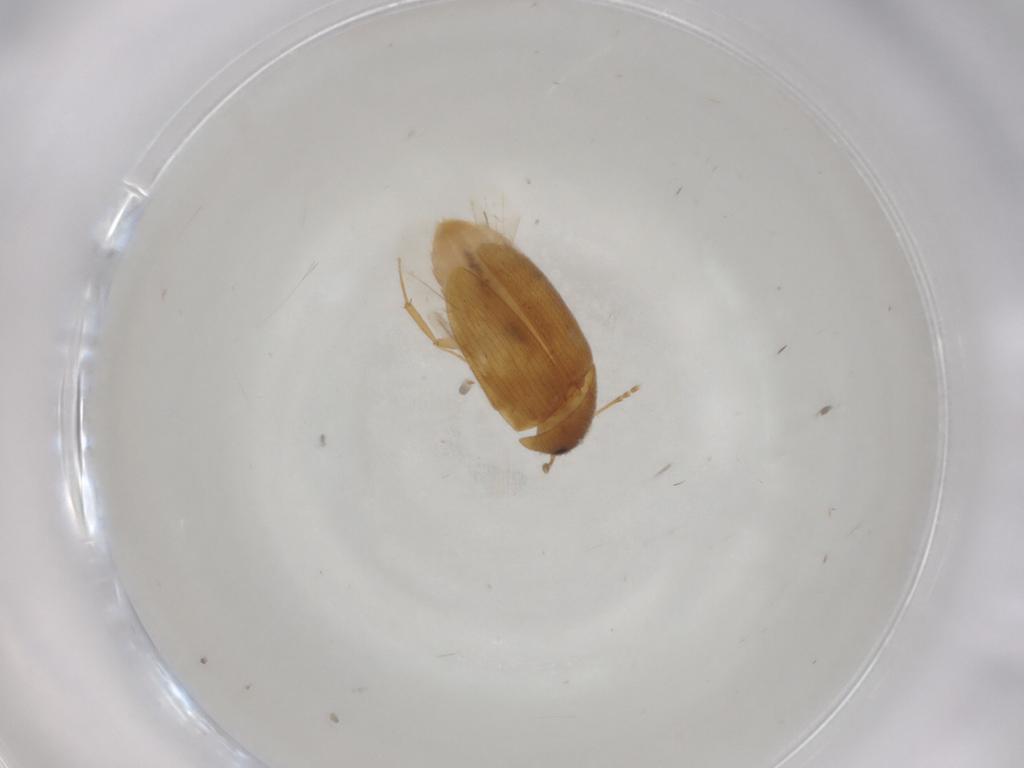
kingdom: Animalia
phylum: Arthropoda
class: Insecta
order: Coleoptera
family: Mycetophagidae
